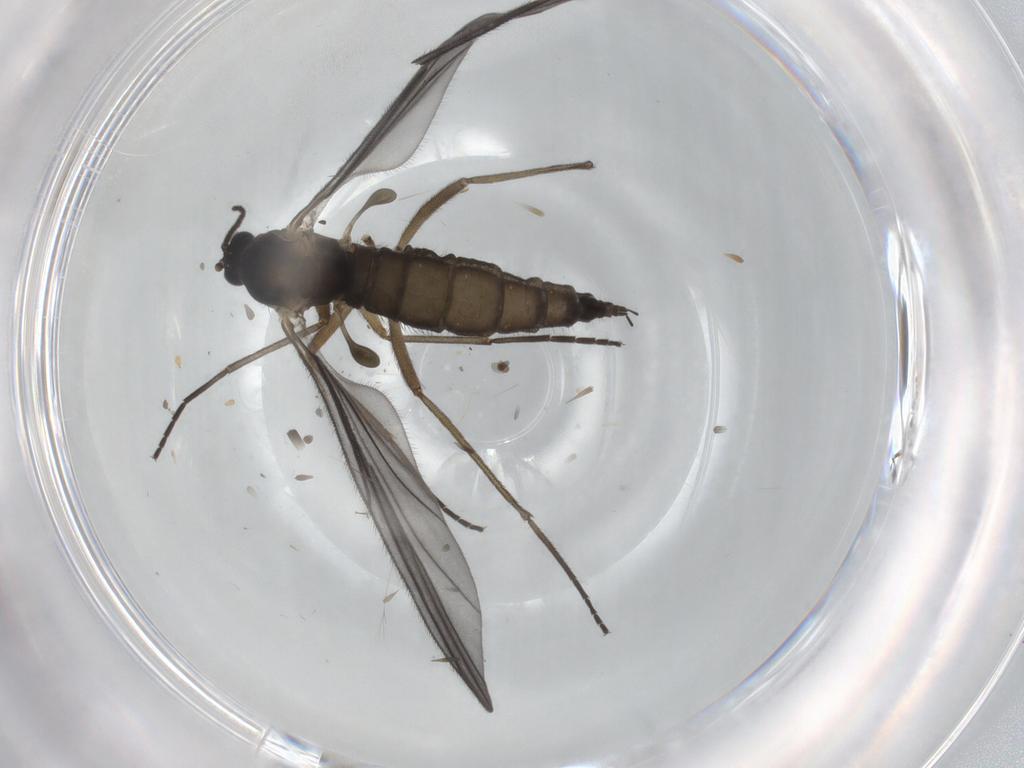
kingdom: Animalia
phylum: Arthropoda
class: Insecta
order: Diptera
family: Sciaridae
